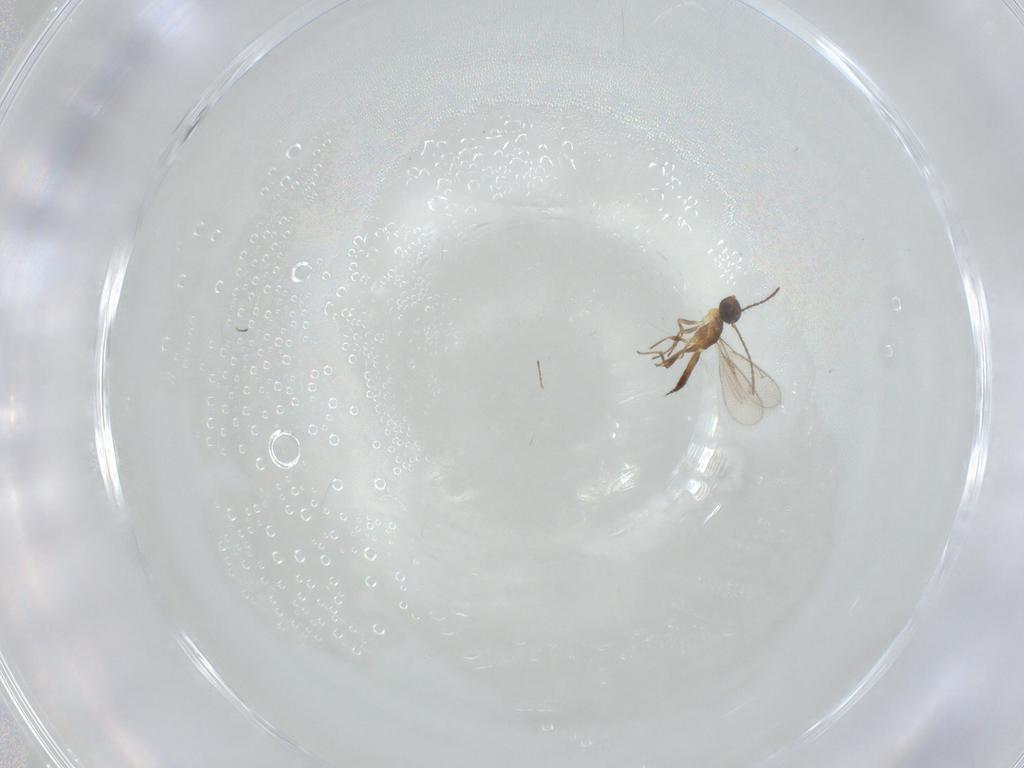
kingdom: Animalia
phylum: Arthropoda
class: Insecta
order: Hymenoptera
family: Eupelmidae
